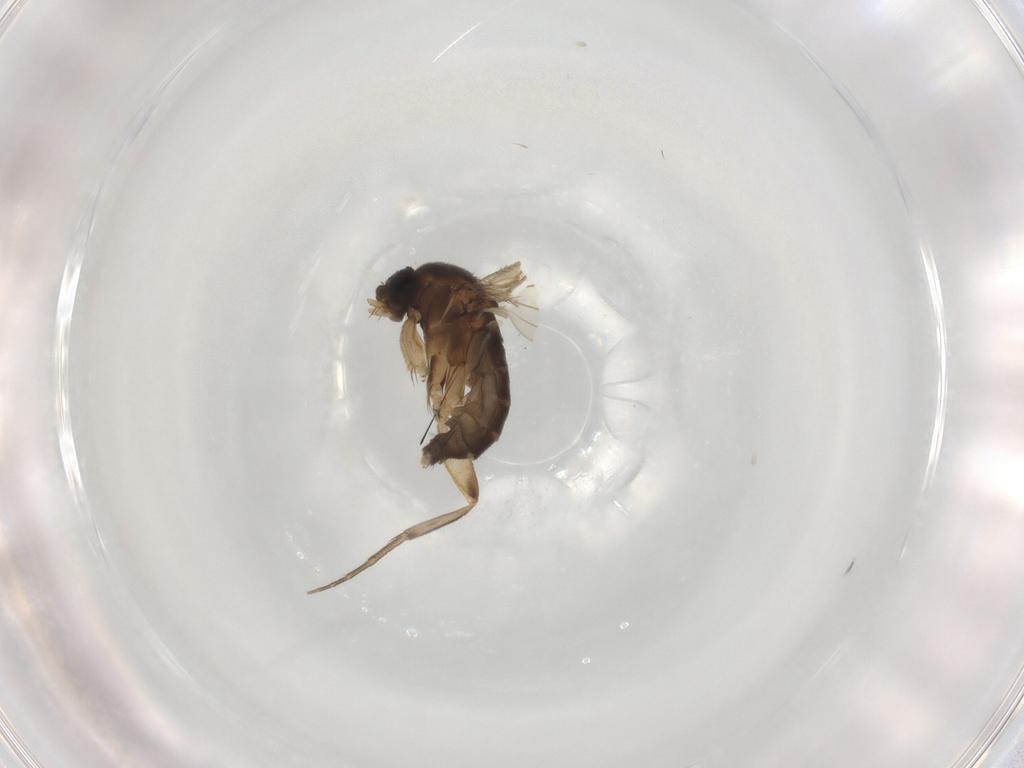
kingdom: Animalia
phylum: Arthropoda
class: Insecta
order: Diptera
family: Phoridae
